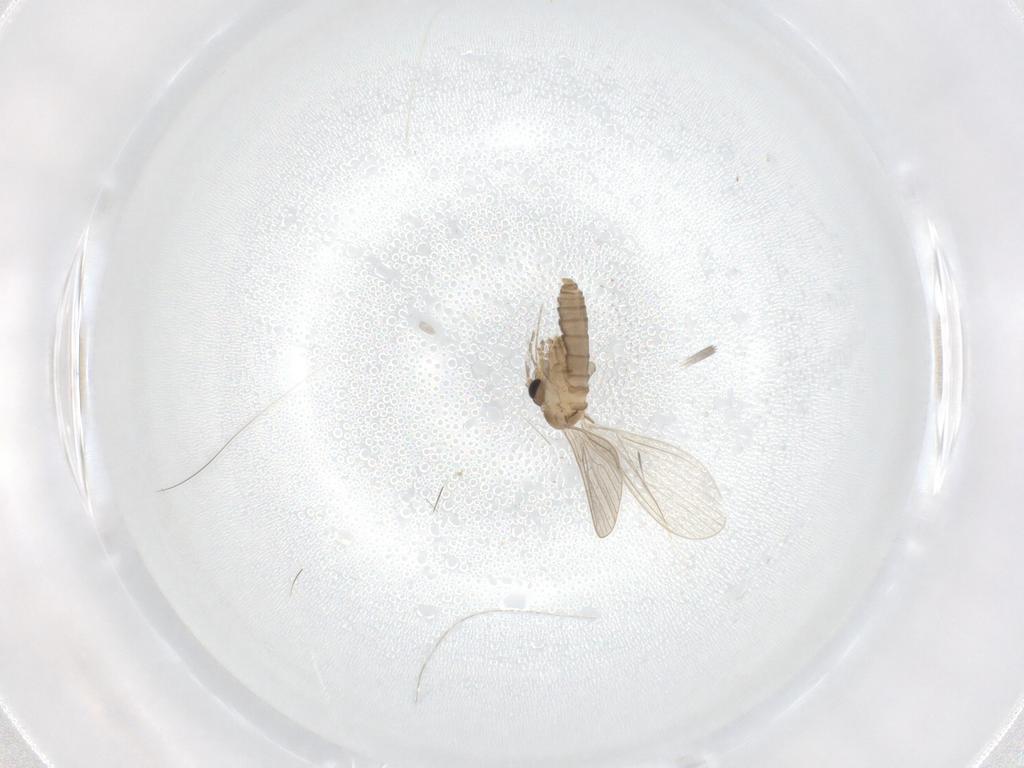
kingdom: Animalia
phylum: Arthropoda
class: Insecta
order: Diptera
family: Psychodidae
